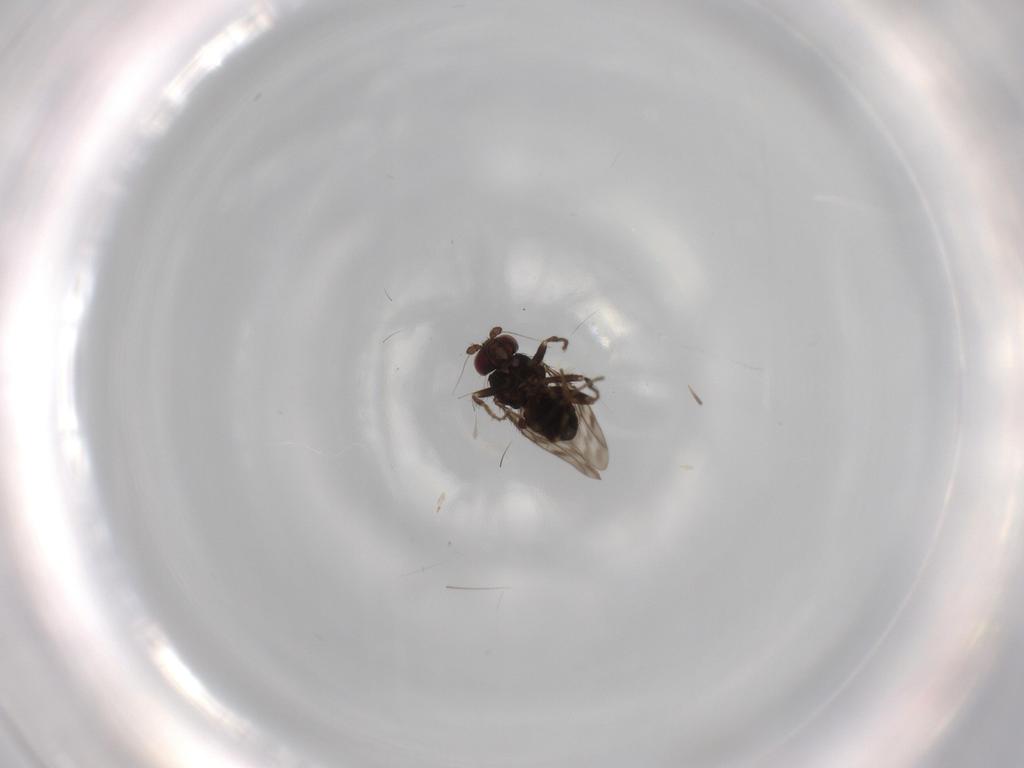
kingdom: Animalia
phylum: Arthropoda
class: Insecta
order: Diptera
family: Sphaeroceridae
